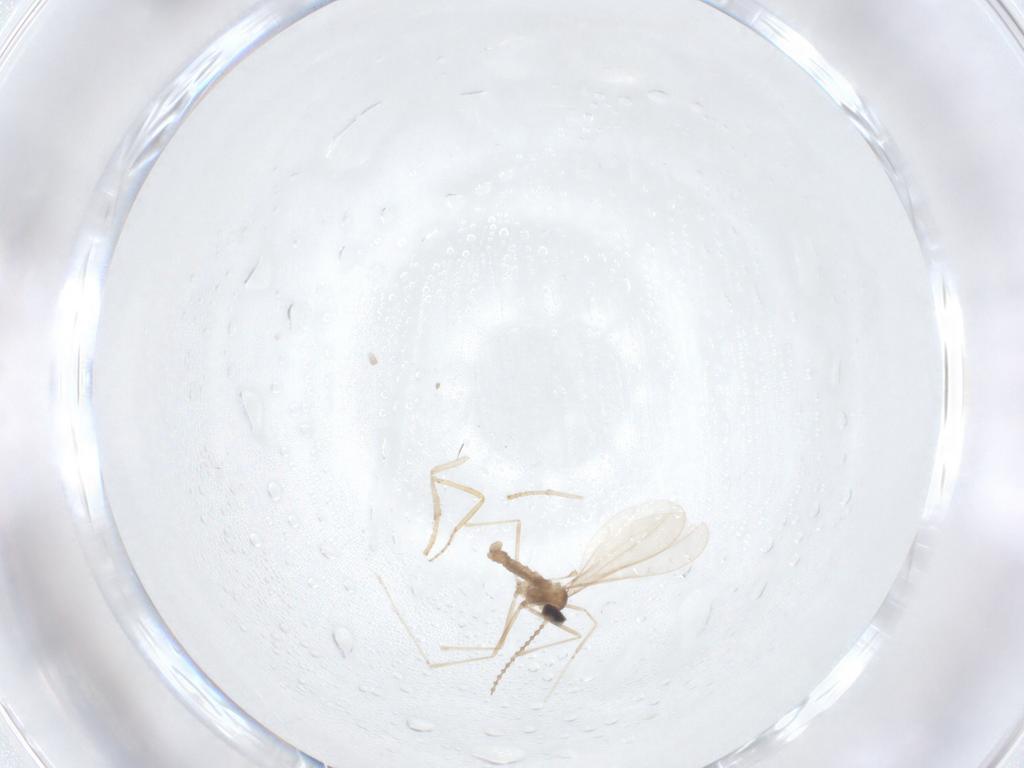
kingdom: Animalia
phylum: Arthropoda
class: Insecta
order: Diptera
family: Psychodidae
